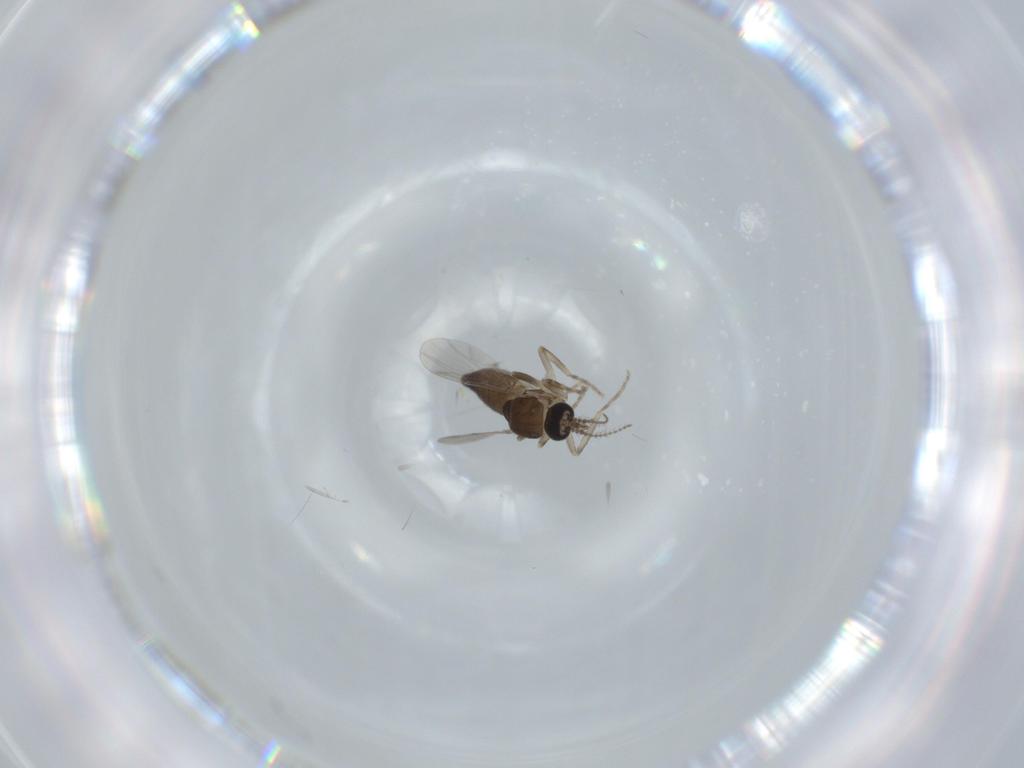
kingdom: Animalia
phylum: Arthropoda
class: Insecta
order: Diptera
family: Ceratopogonidae
